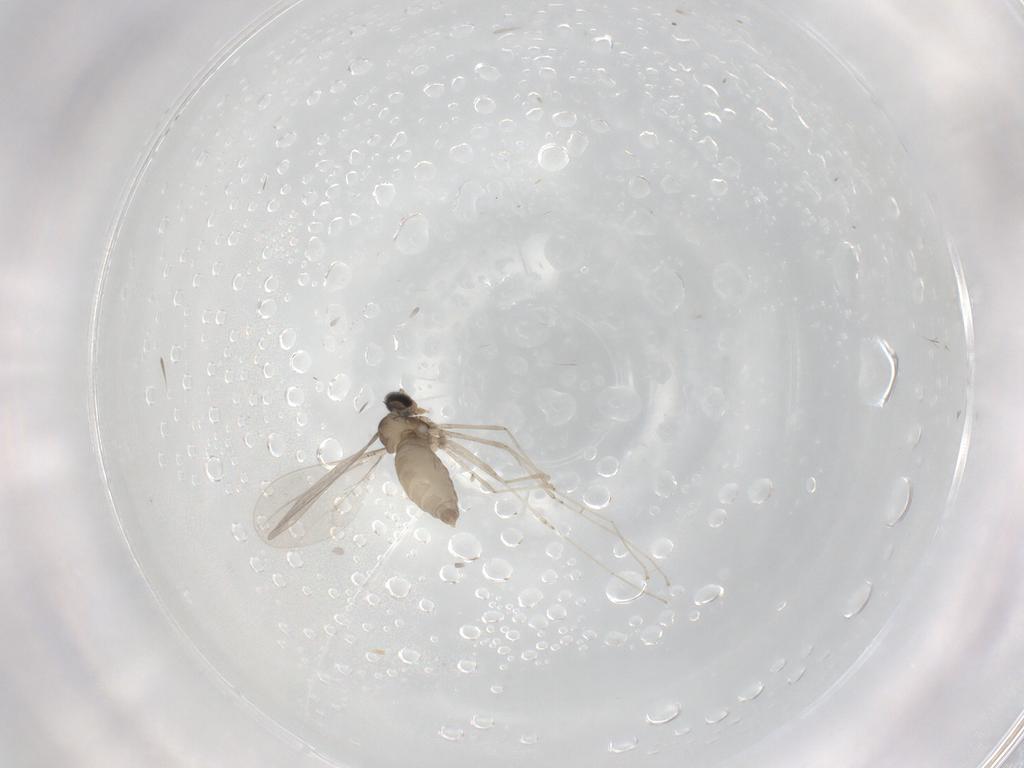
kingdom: Animalia
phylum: Arthropoda
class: Insecta
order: Diptera
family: Cecidomyiidae
